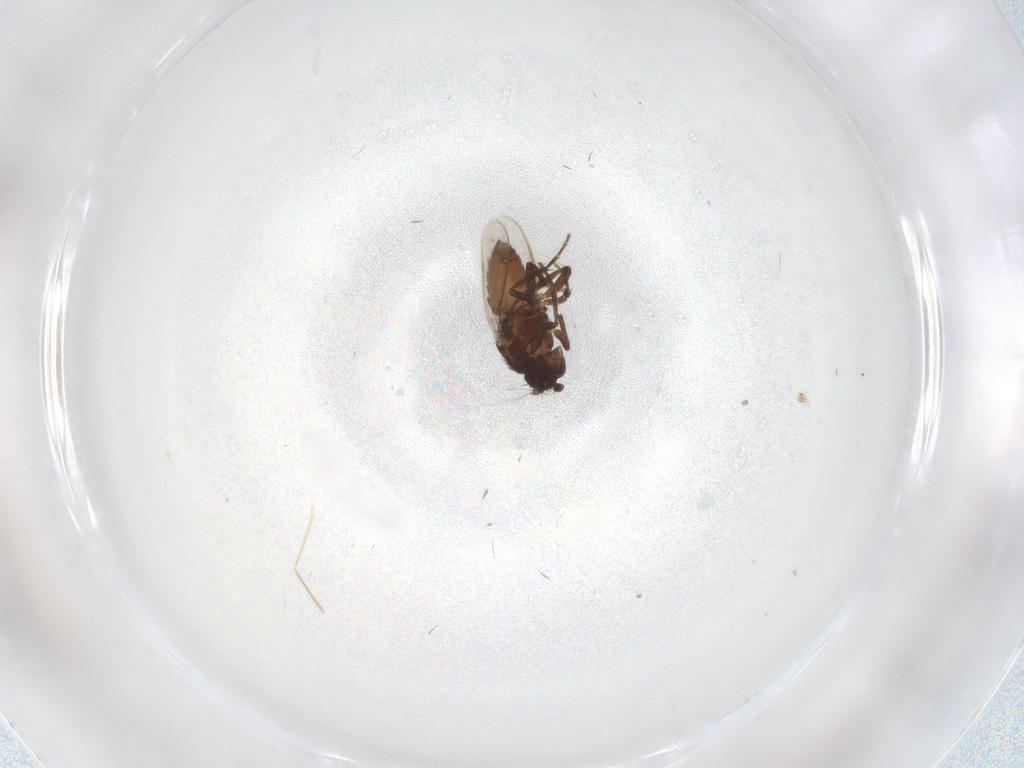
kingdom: Animalia
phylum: Arthropoda
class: Insecta
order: Diptera
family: Sphaeroceridae
